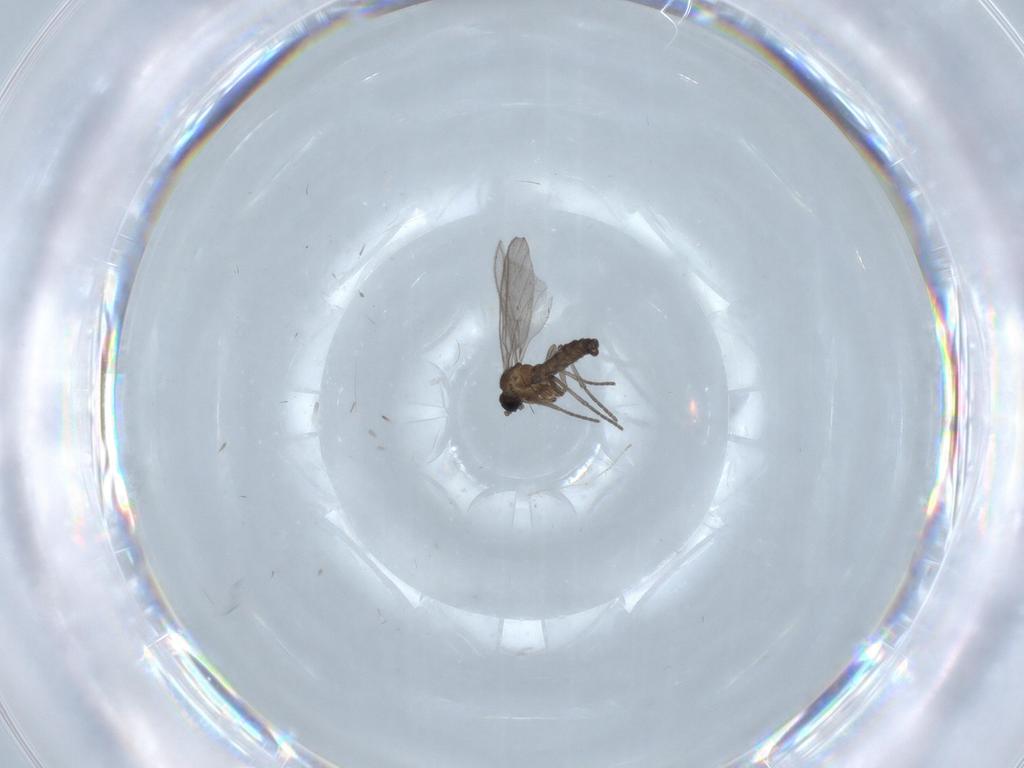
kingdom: Animalia
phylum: Arthropoda
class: Insecta
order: Diptera
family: Sciaridae
